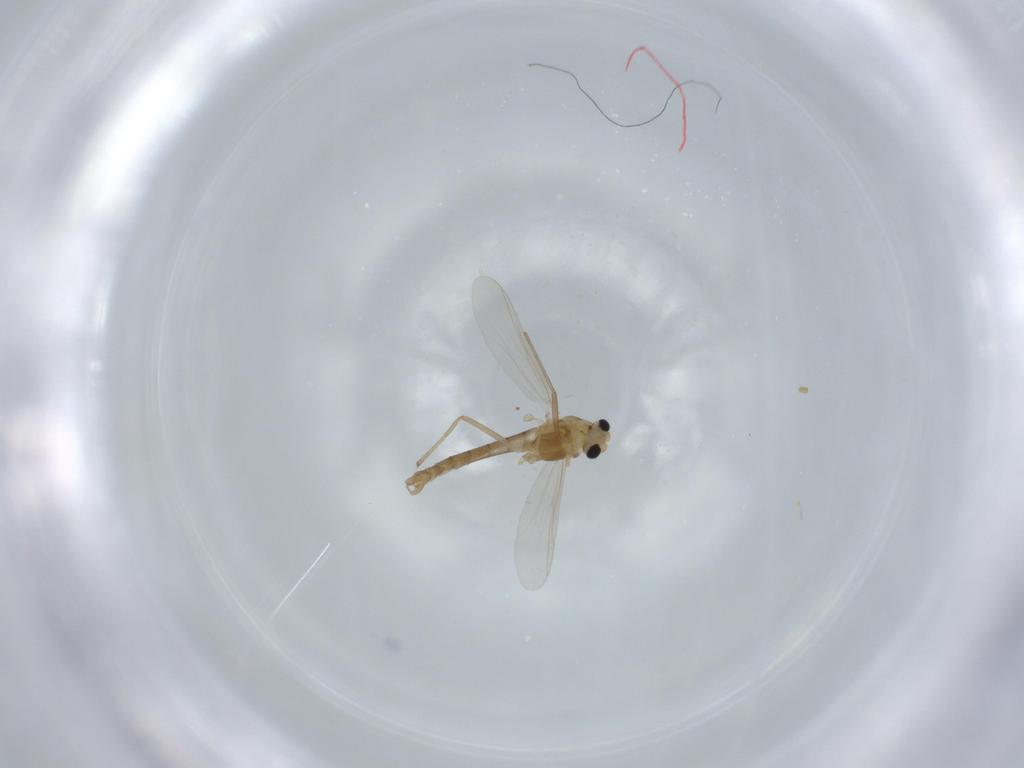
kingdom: Animalia
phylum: Arthropoda
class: Insecta
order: Diptera
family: Chironomidae
